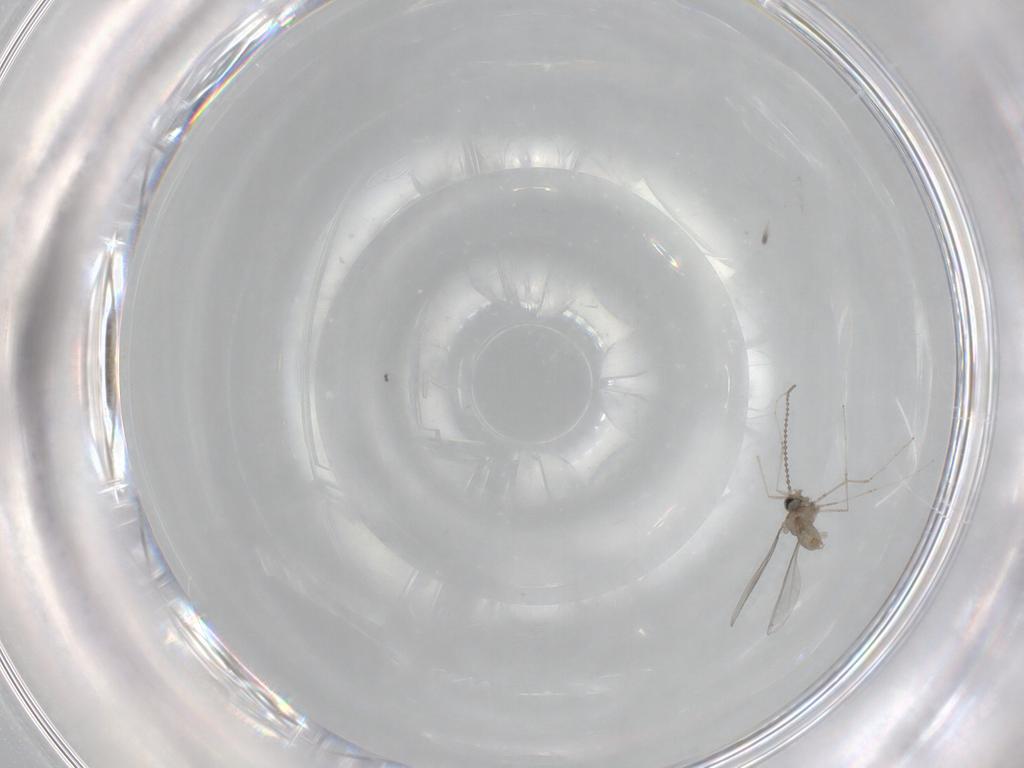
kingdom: Animalia
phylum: Arthropoda
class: Insecta
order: Diptera
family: Cecidomyiidae
